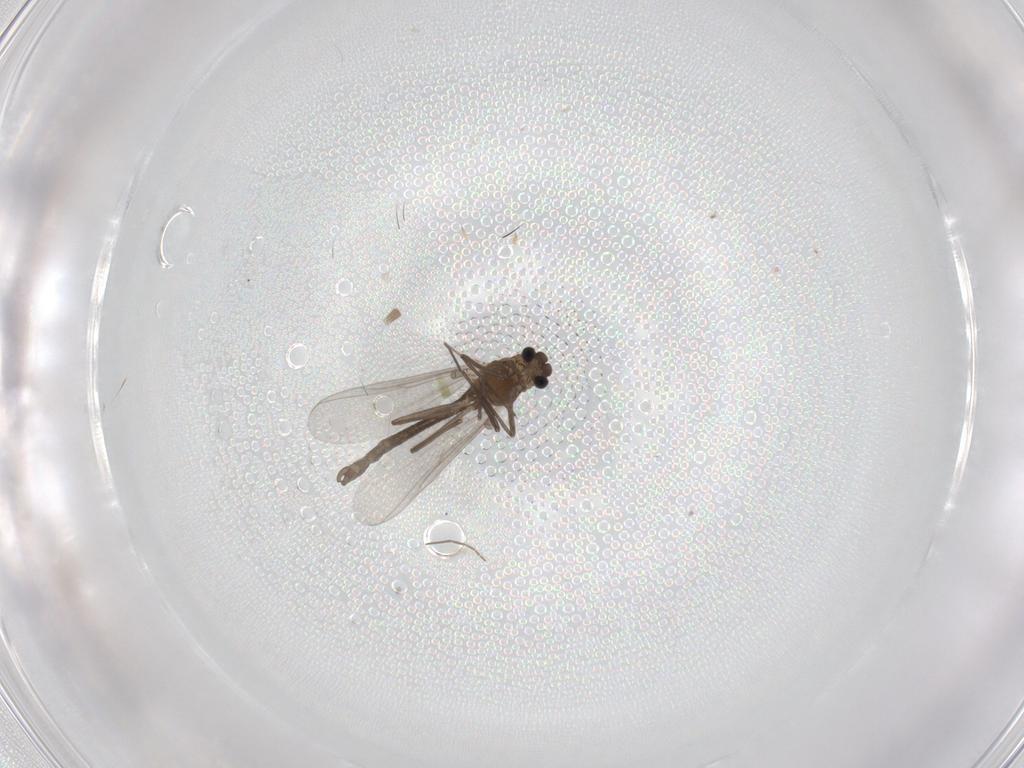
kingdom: Animalia
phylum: Arthropoda
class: Insecta
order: Diptera
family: Chironomidae
